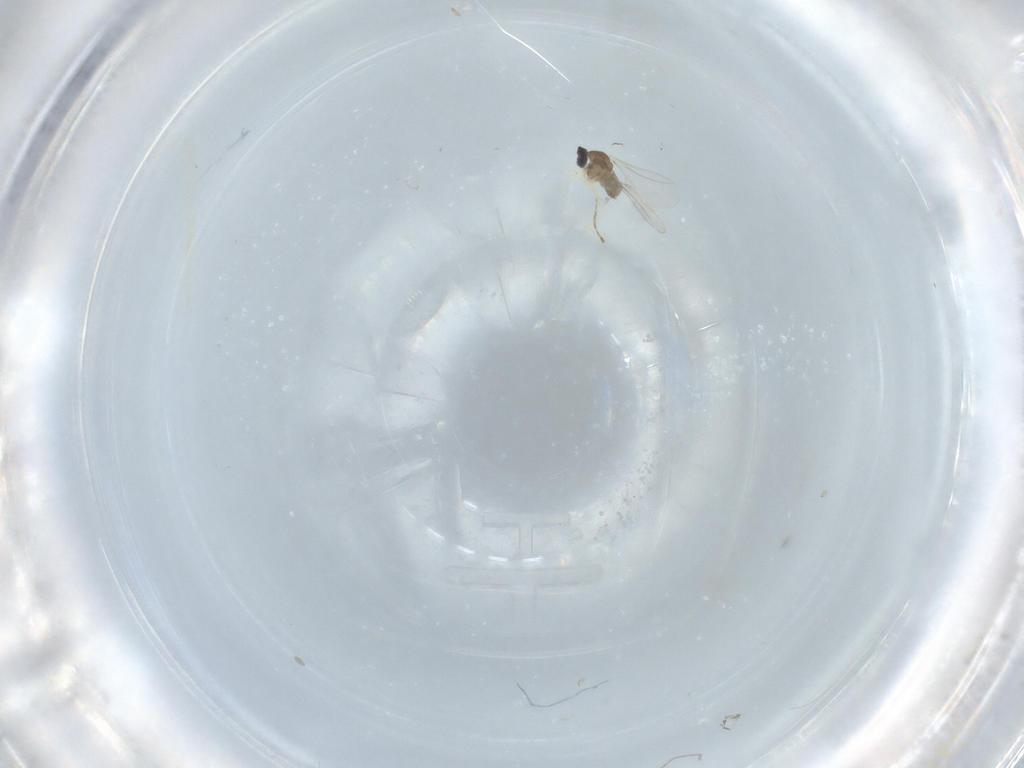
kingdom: Animalia
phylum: Arthropoda
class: Insecta
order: Diptera
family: Cecidomyiidae
